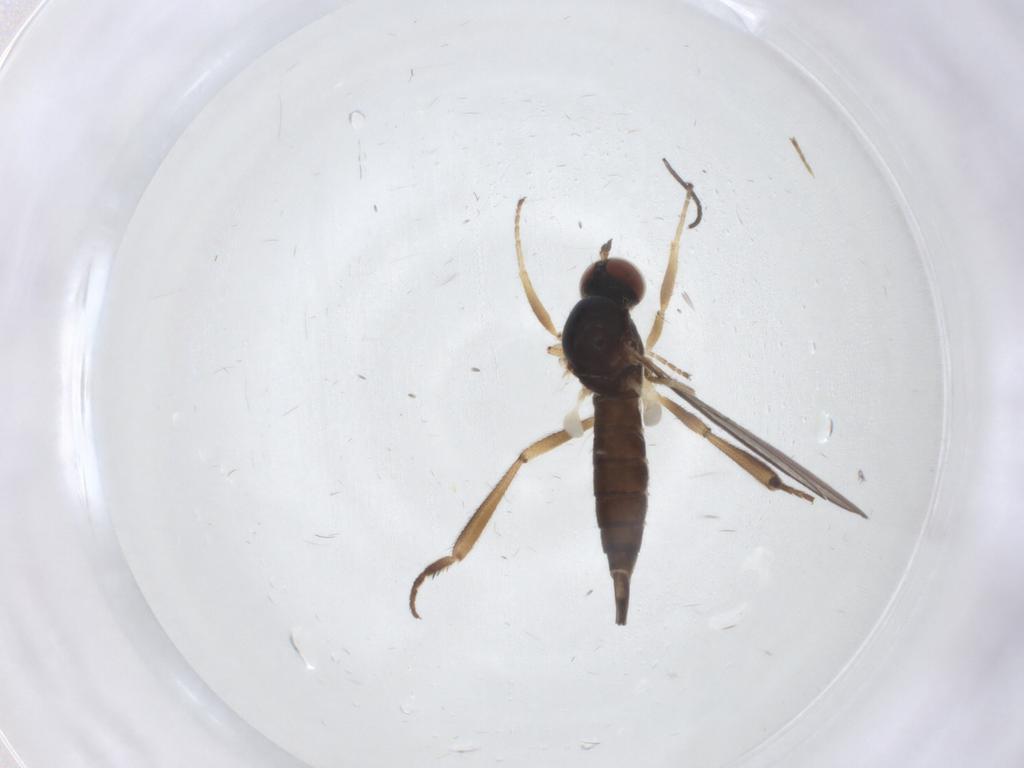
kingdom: Animalia
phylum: Arthropoda
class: Insecta
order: Diptera
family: Hybotidae
